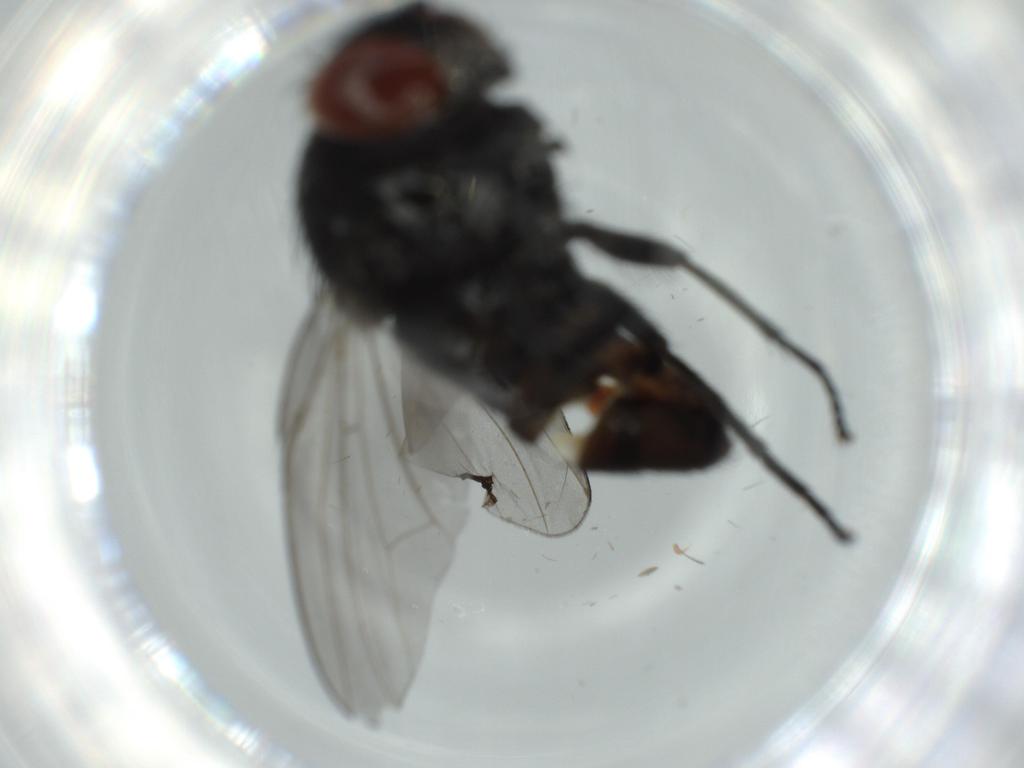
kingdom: Animalia
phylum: Arthropoda
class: Insecta
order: Diptera
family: Milichiidae
